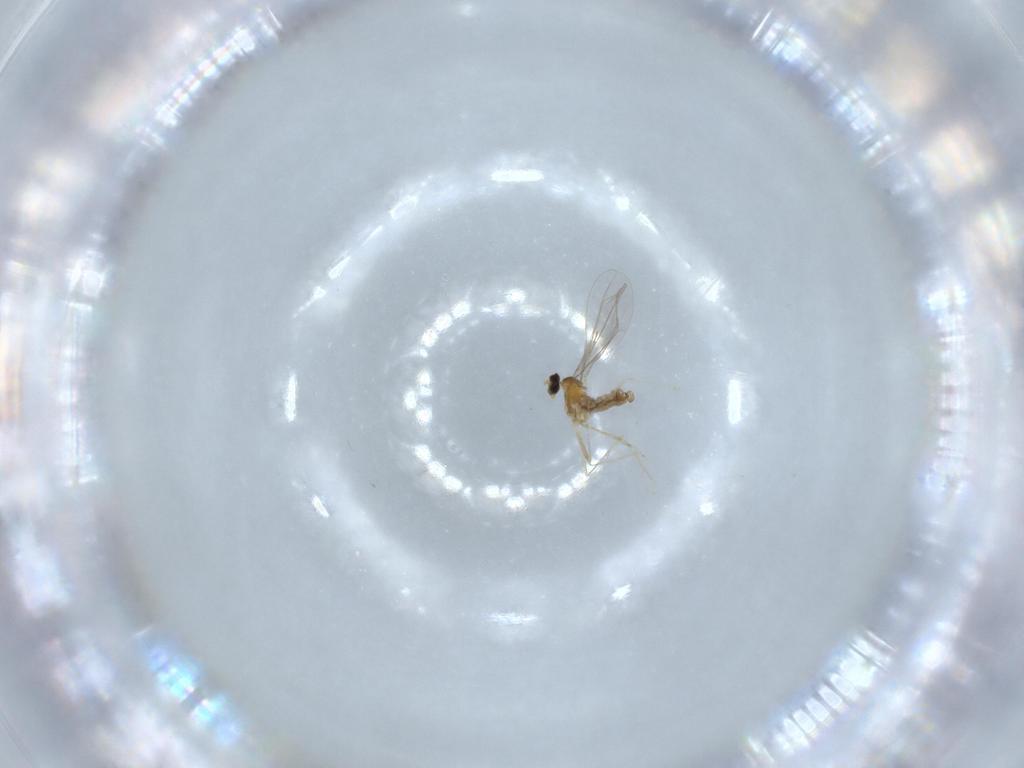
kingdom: Animalia
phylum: Arthropoda
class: Insecta
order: Diptera
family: Cecidomyiidae
